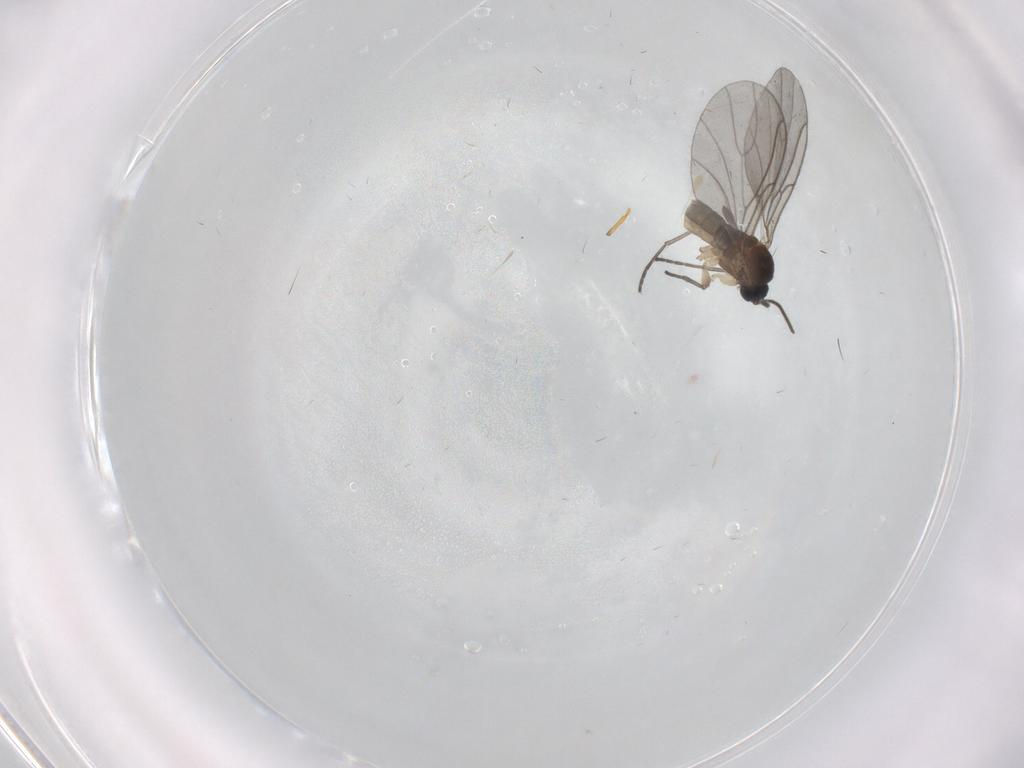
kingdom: Animalia
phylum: Arthropoda
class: Insecta
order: Diptera
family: Sciaridae
